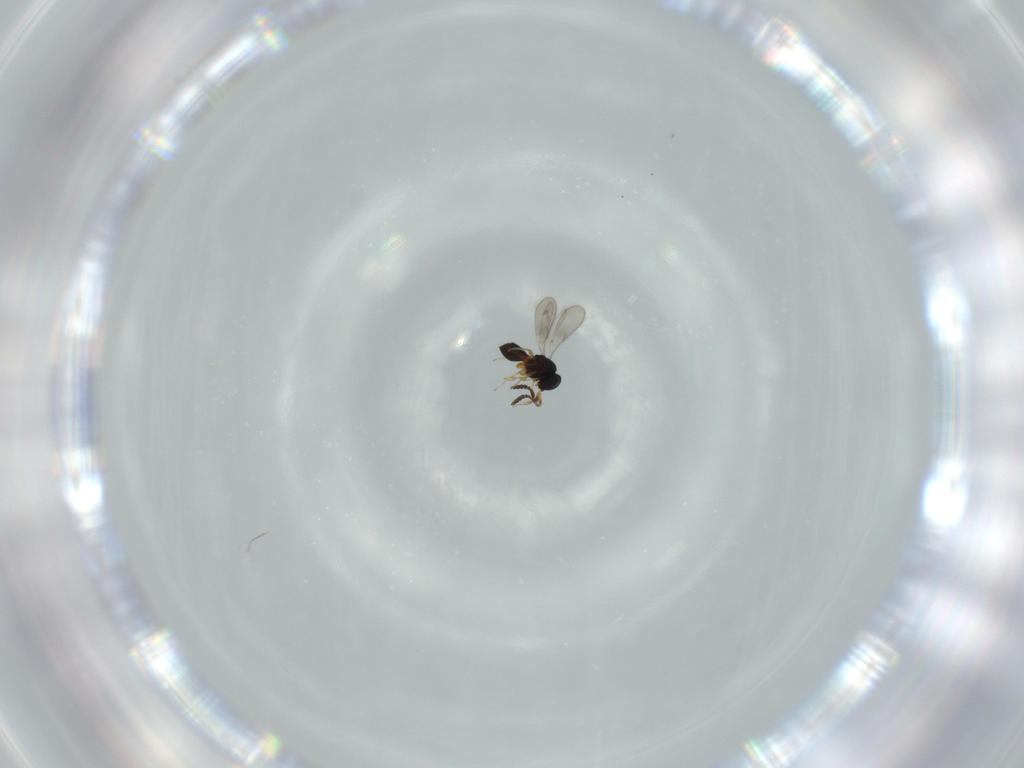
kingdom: Animalia
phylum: Arthropoda
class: Insecta
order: Hymenoptera
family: Scelionidae
